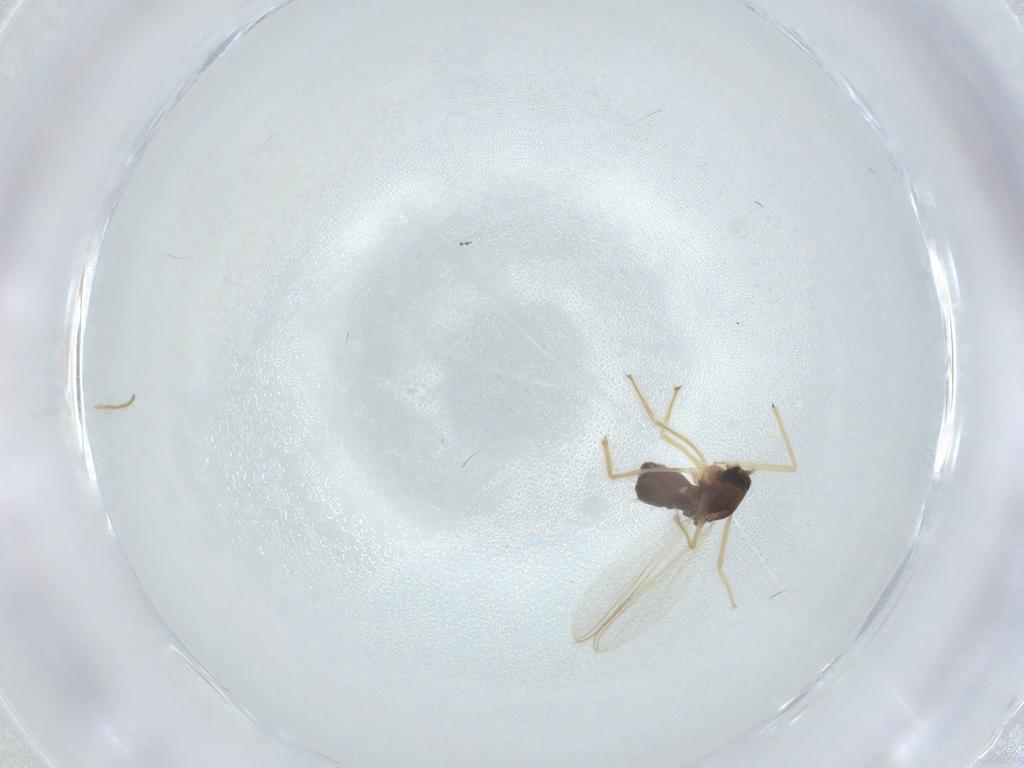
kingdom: Animalia
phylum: Arthropoda
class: Insecta
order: Diptera
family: Chironomidae
